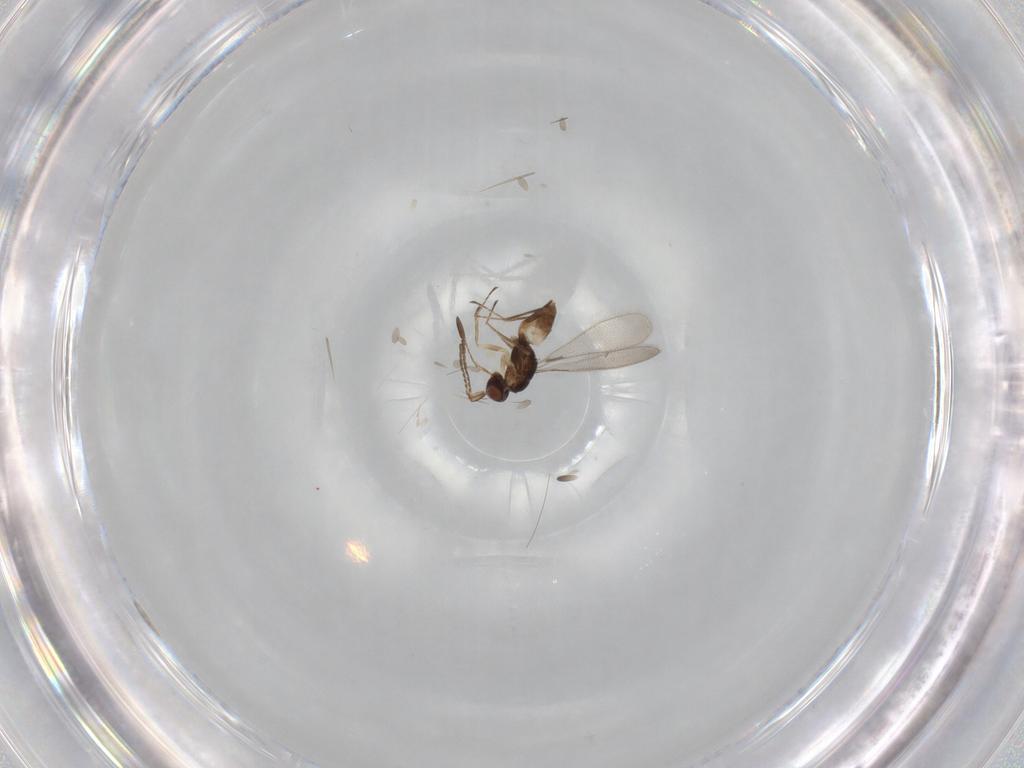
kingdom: Animalia
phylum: Arthropoda
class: Insecta
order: Hymenoptera
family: Mymaridae
